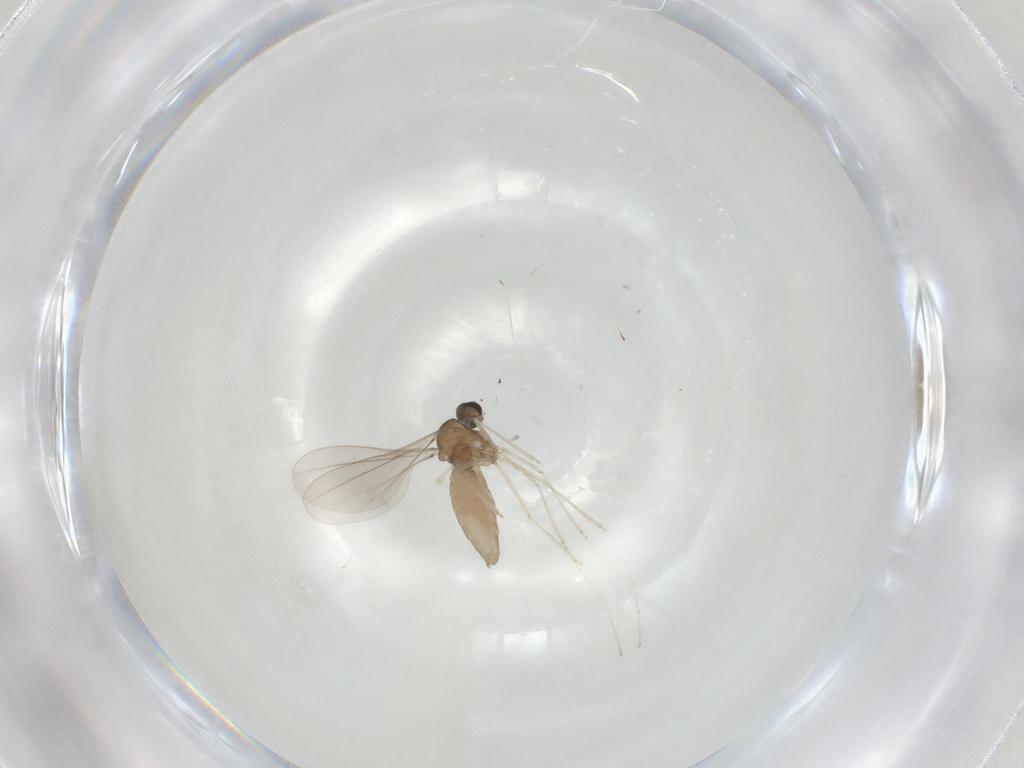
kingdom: Animalia
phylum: Arthropoda
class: Insecta
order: Diptera
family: Cecidomyiidae
